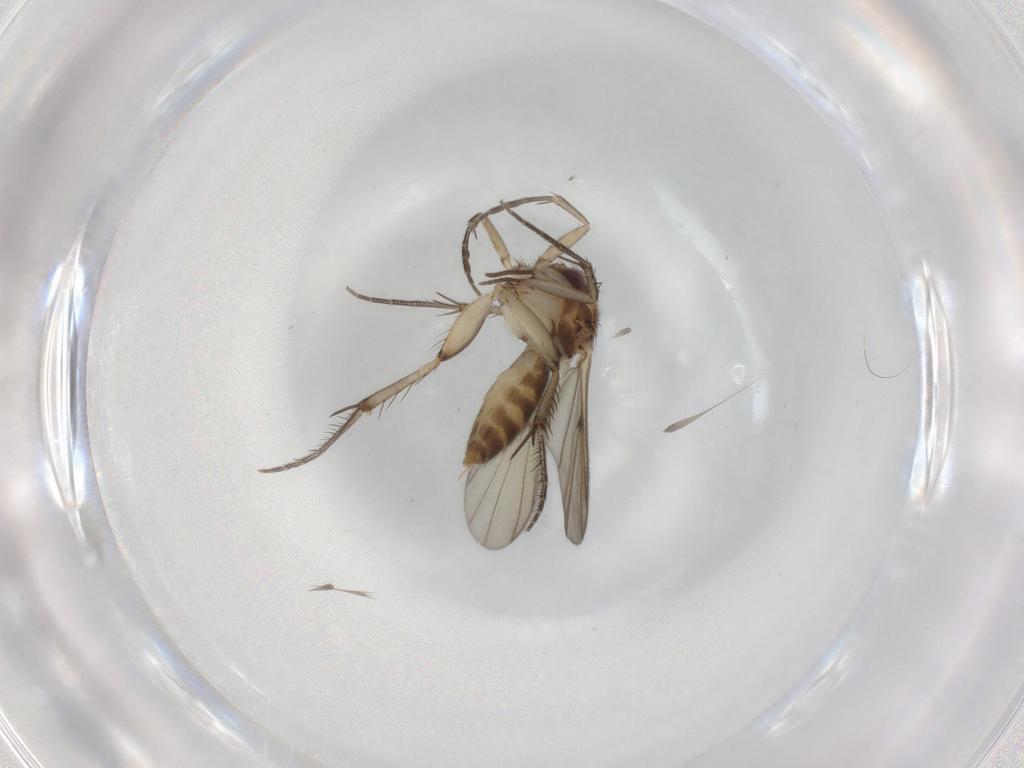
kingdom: Animalia
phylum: Arthropoda
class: Insecta
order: Diptera
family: Mycetophilidae
